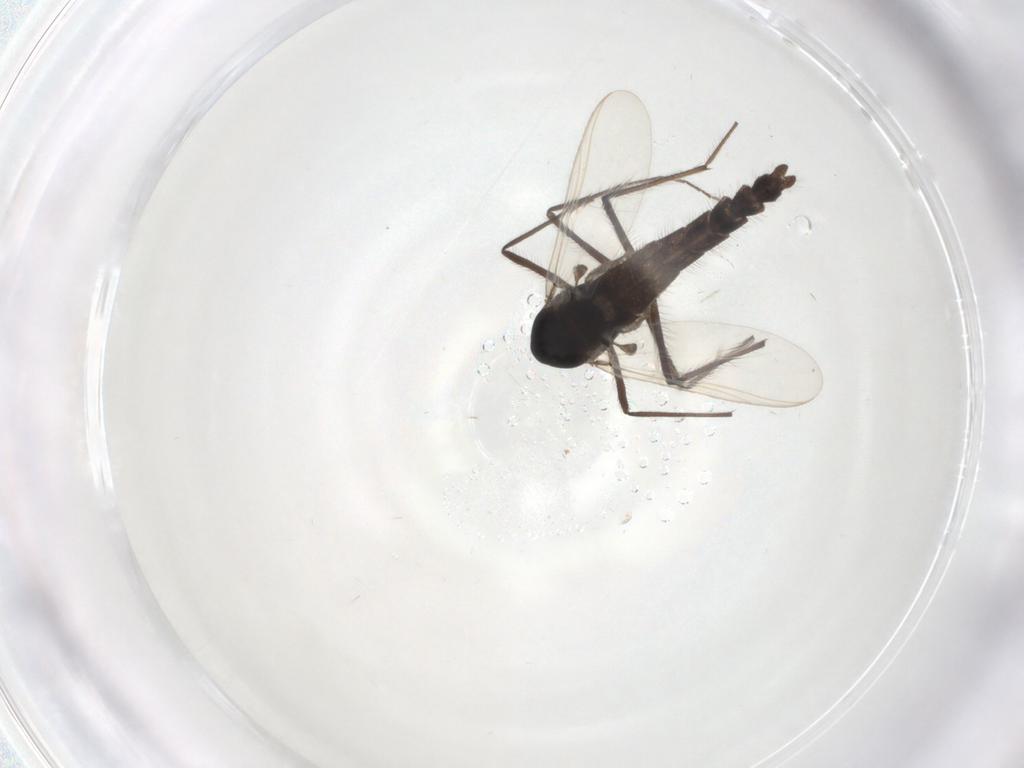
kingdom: Animalia
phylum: Arthropoda
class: Insecta
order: Diptera
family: Chironomidae
